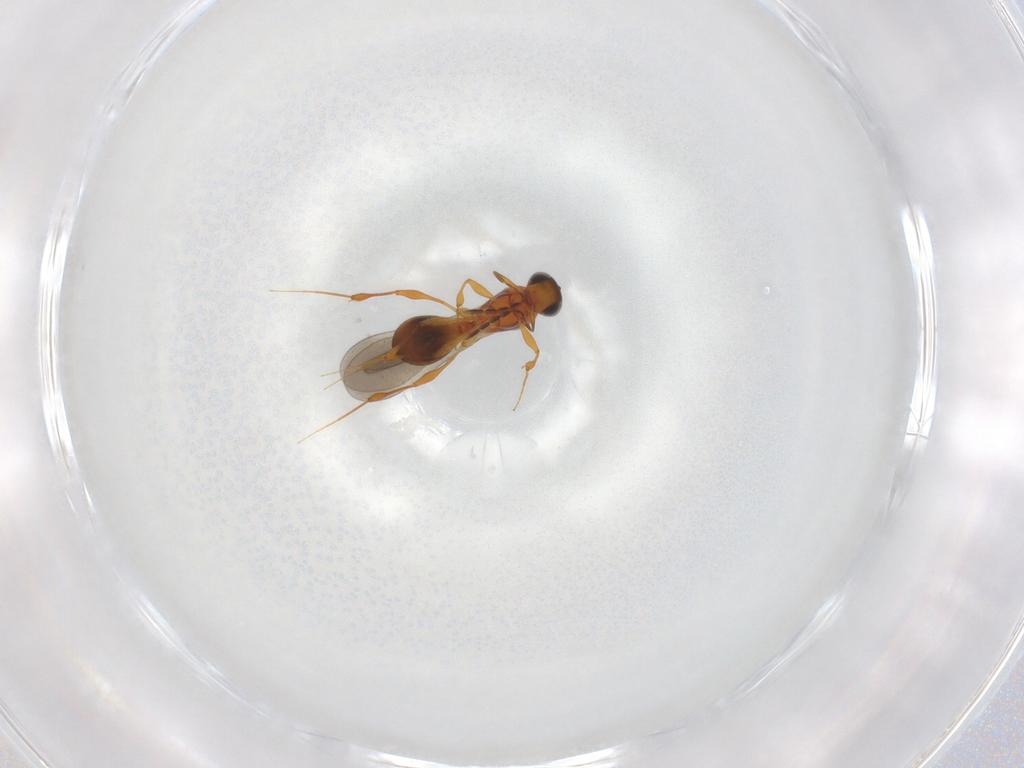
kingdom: Animalia
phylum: Arthropoda
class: Insecta
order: Hymenoptera
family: Platygastridae
